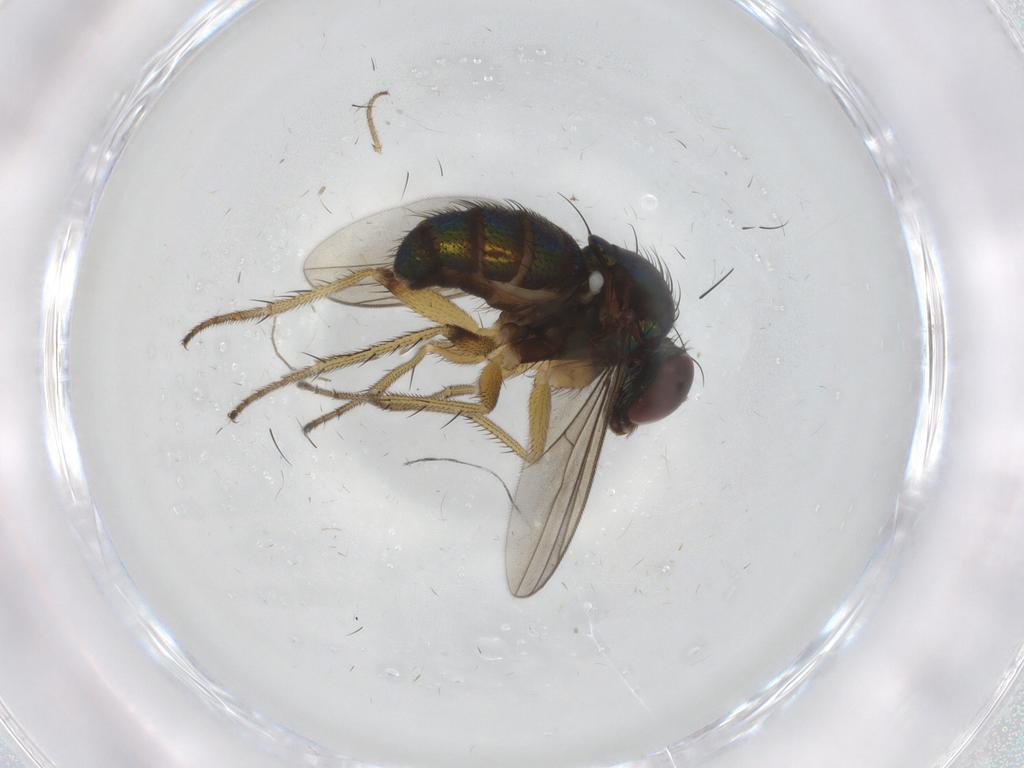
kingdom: Animalia
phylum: Arthropoda
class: Insecta
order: Diptera
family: Dolichopodidae
